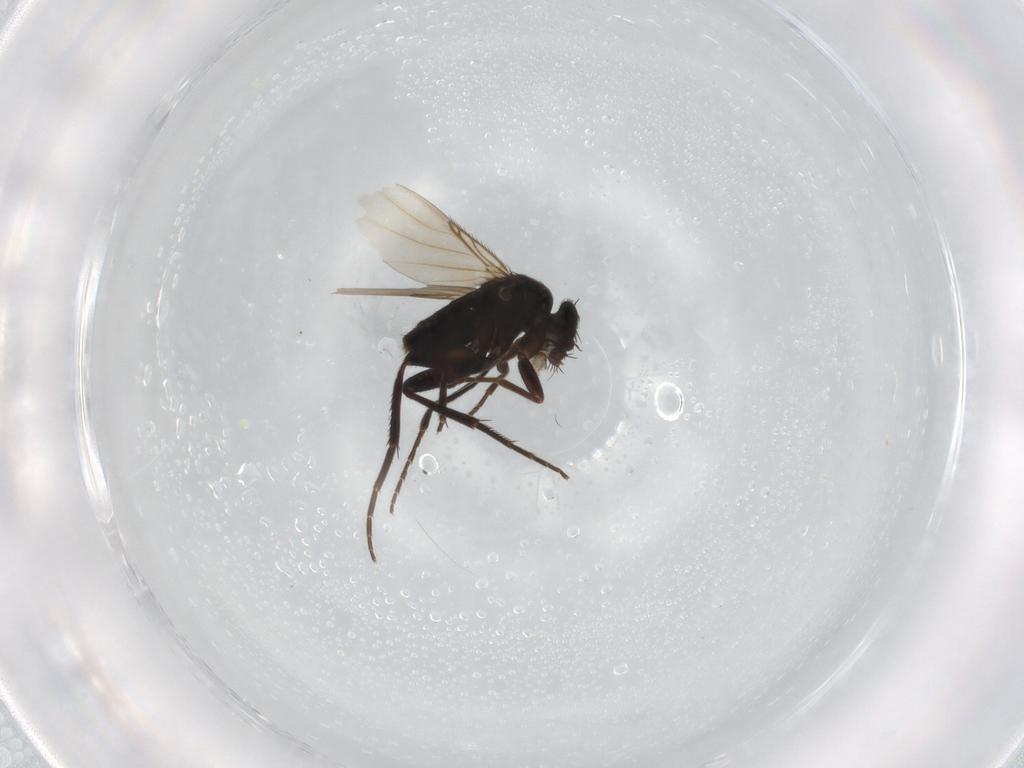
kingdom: Animalia
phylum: Arthropoda
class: Insecta
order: Diptera
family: Phoridae
